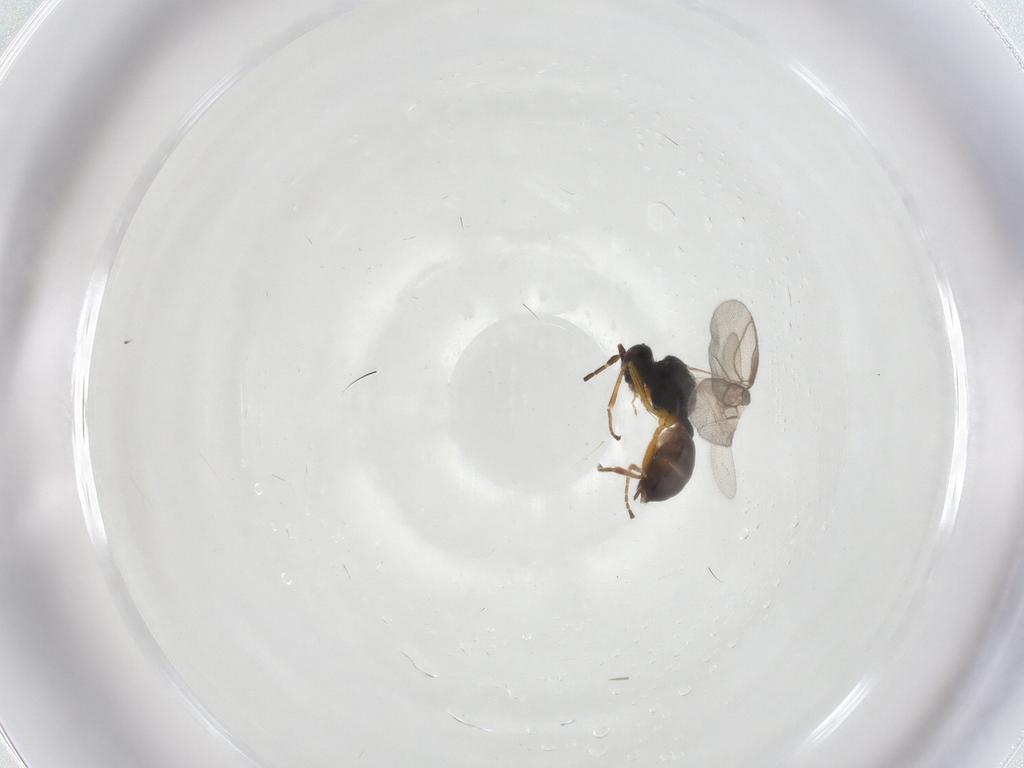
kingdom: Animalia
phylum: Arthropoda
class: Insecta
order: Hymenoptera
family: Braconidae
